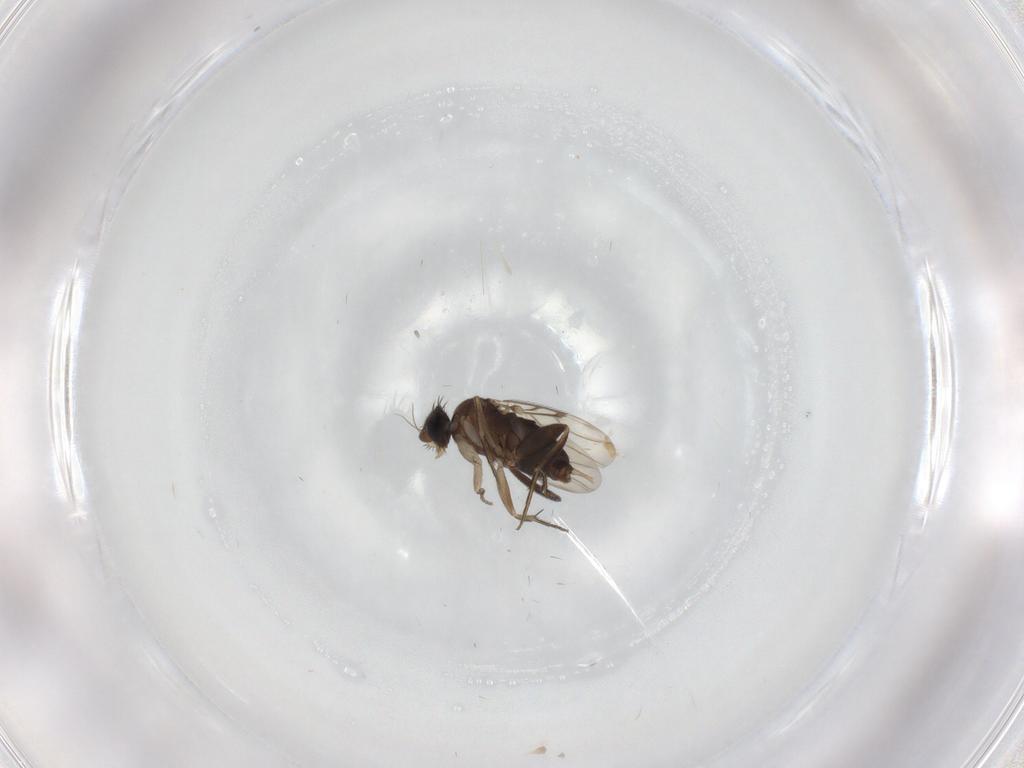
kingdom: Animalia
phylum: Arthropoda
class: Insecta
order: Diptera
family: Phoridae
